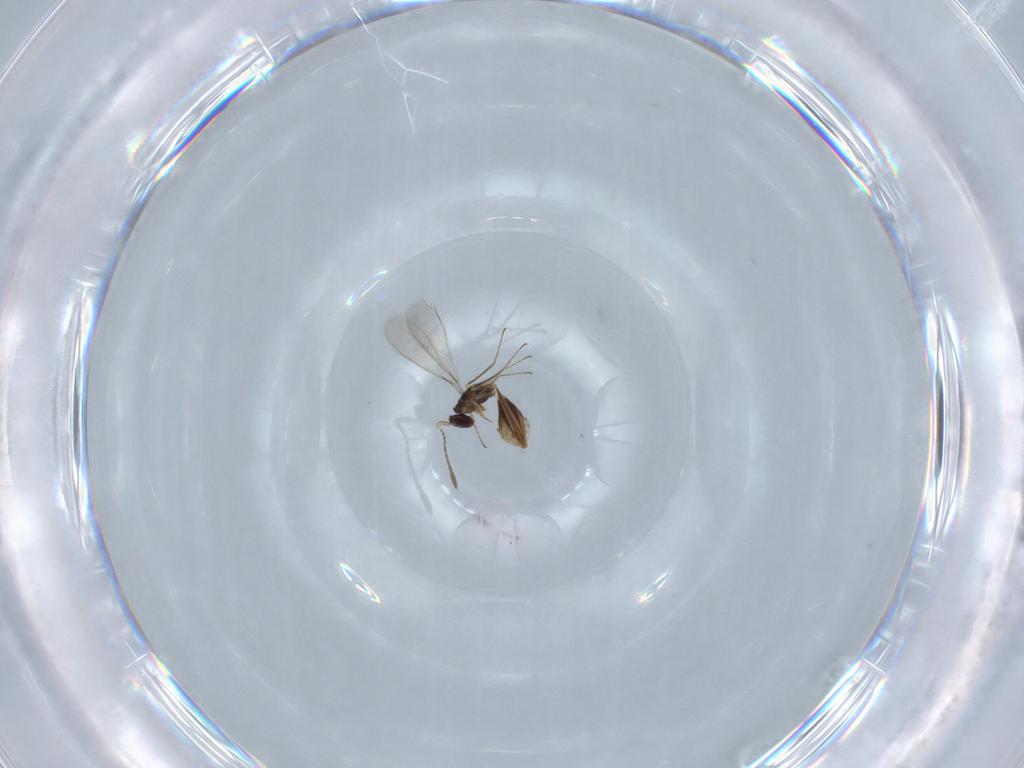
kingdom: Animalia
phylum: Arthropoda
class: Insecta
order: Hymenoptera
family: Mymaridae
